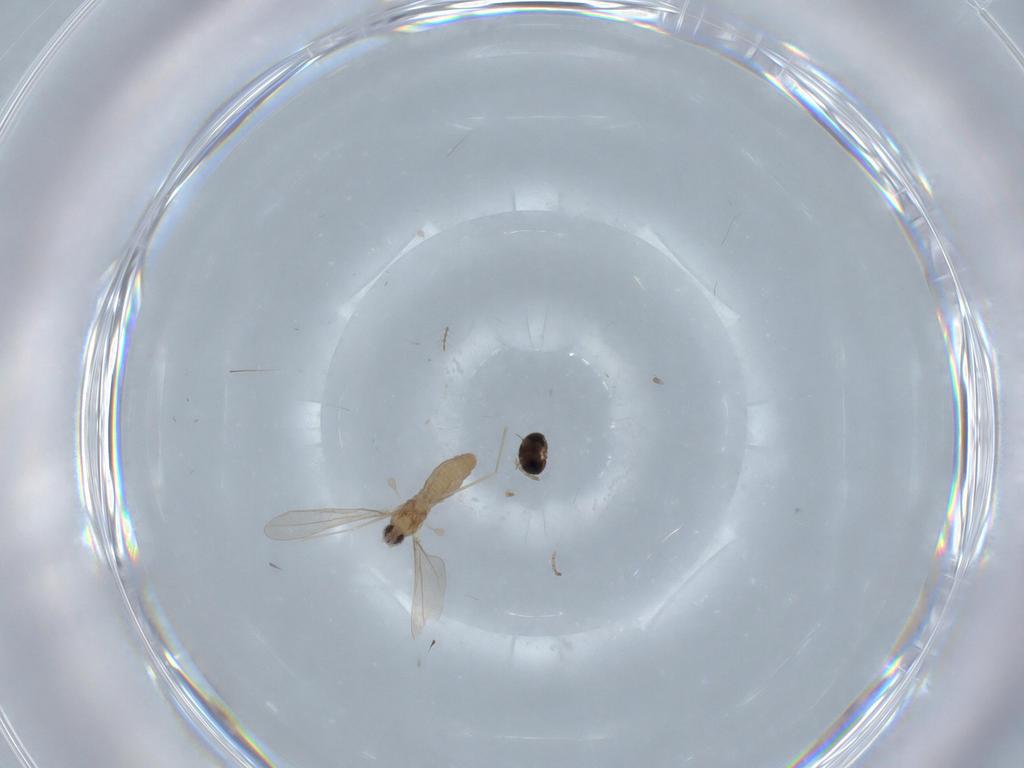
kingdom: Animalia
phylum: Arthropoda
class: Insecta
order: Diptera
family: Cecidomyiidae
